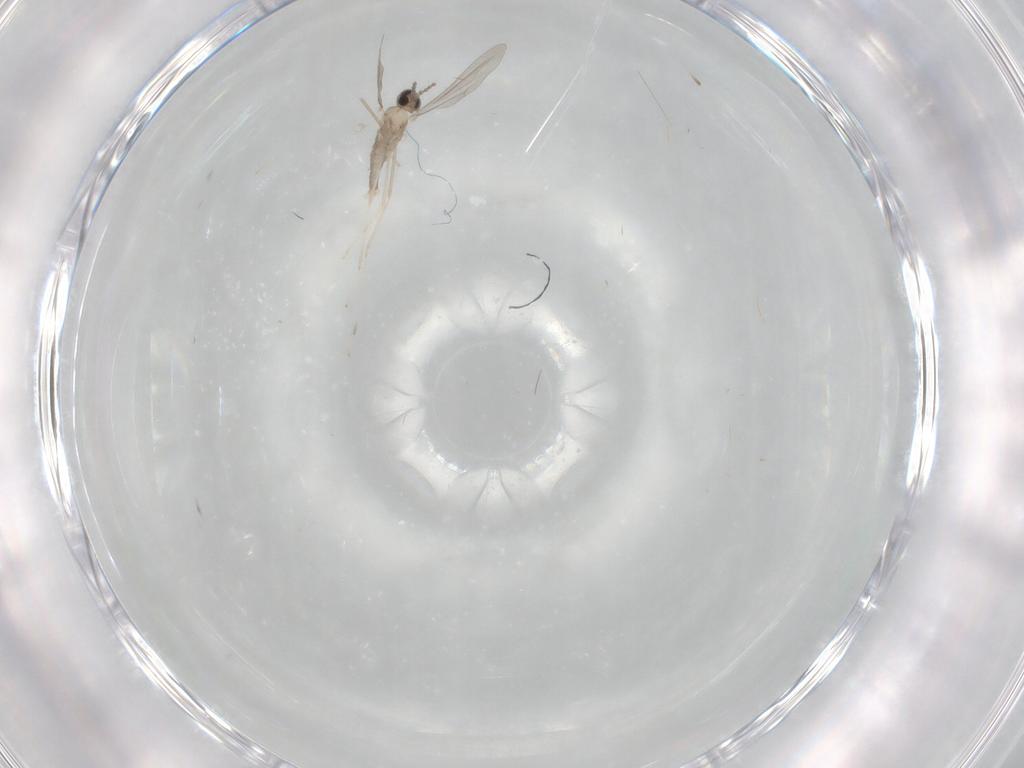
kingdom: Animalia
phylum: Arthropoda
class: Insecta
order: Diptera
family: Cecidomyiidae
